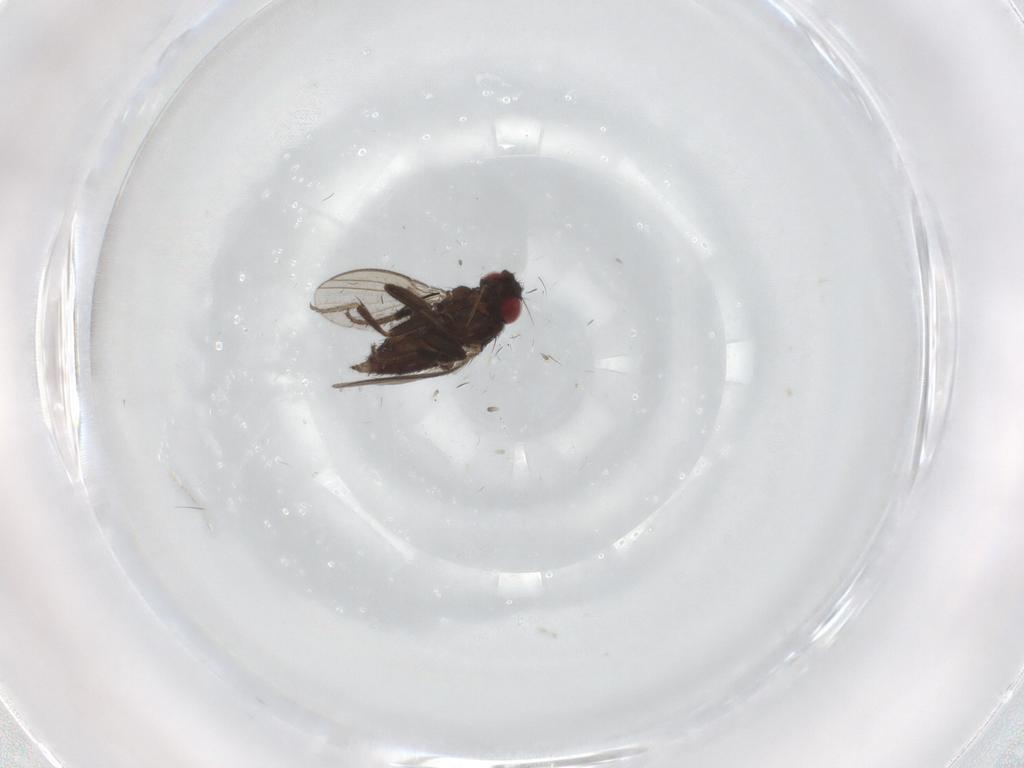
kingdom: Animalia
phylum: Arthropoda
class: Insecta
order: Diptera
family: Milichiidae
